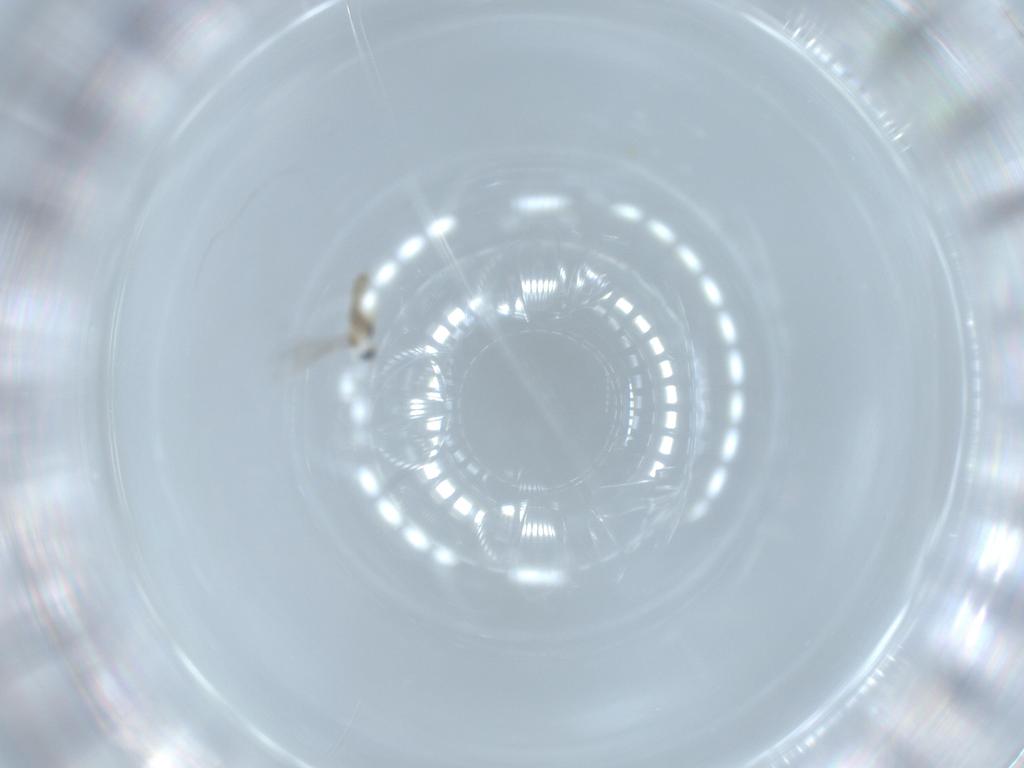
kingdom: Animalia
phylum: Arthropoda
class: Insecta
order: Diptera
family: Cecidomyiidae
